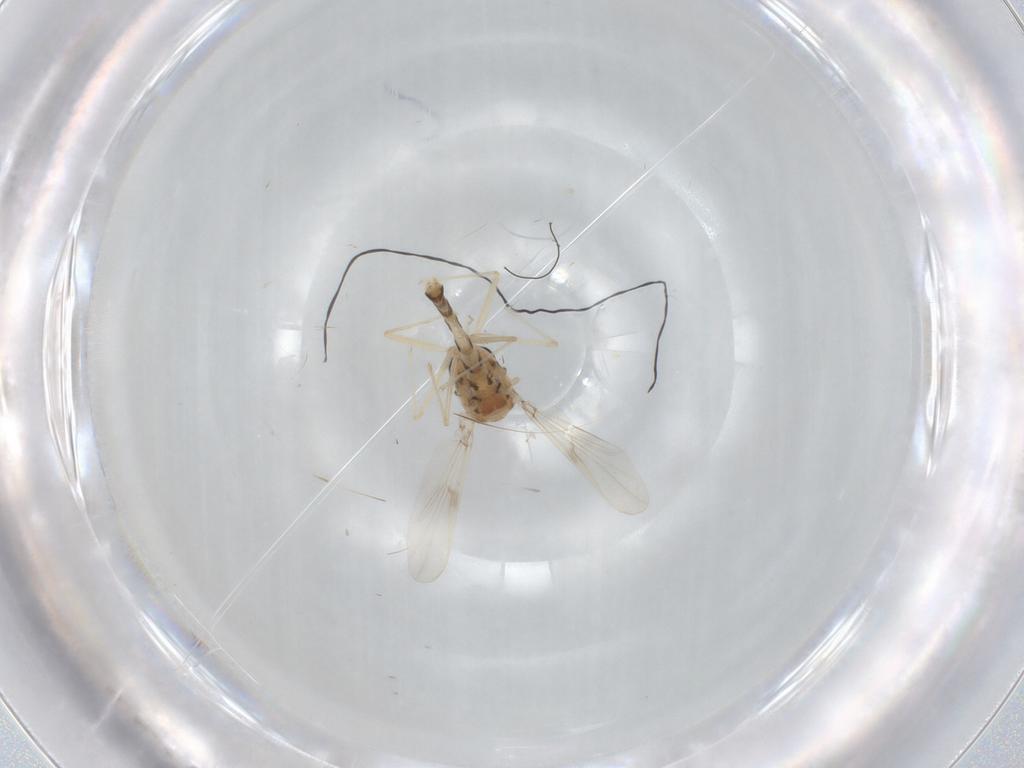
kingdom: Animalia
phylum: Arthropoda
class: Insecta
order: Diptera
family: Chironomidae
